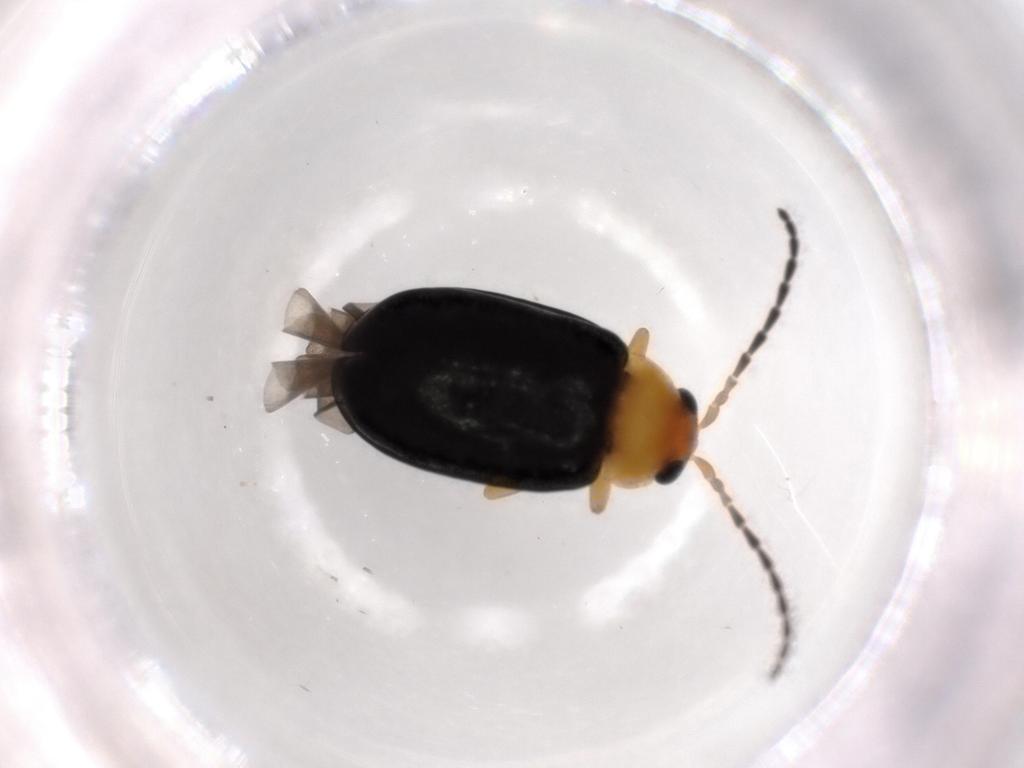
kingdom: Animalia
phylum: Arthropoda
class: Insecta
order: Coleoptera
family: Chrysomelidae
